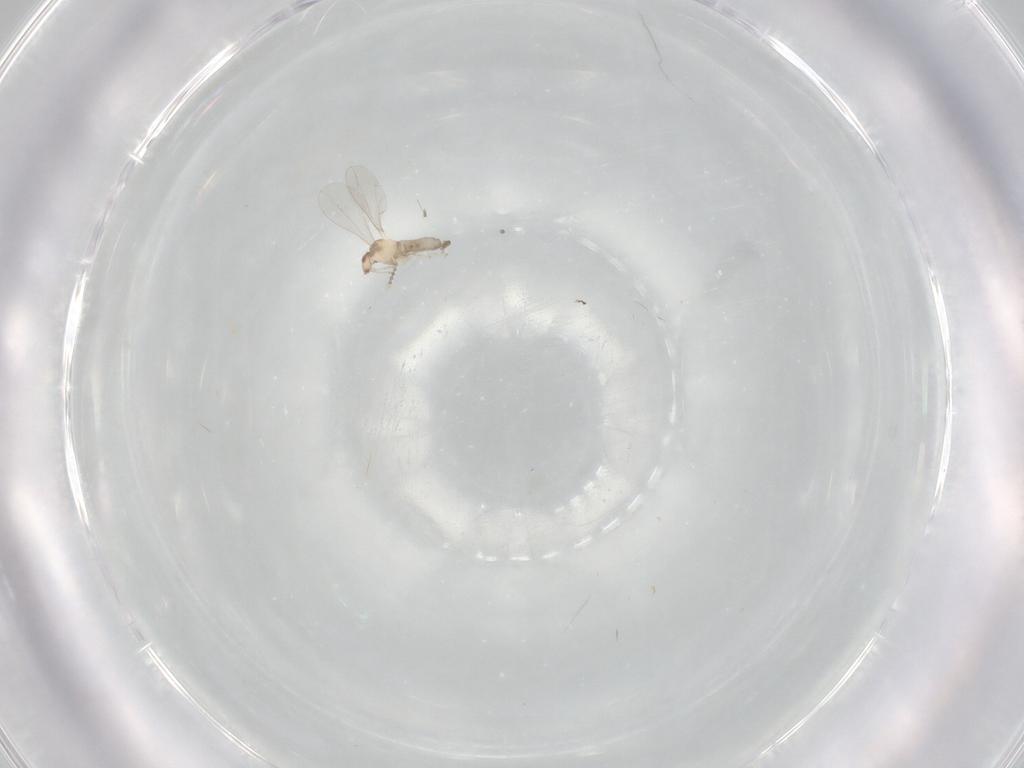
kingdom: Animalia
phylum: Arthropoda
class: Insecta
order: Diptera
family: Cecidomyiidae
